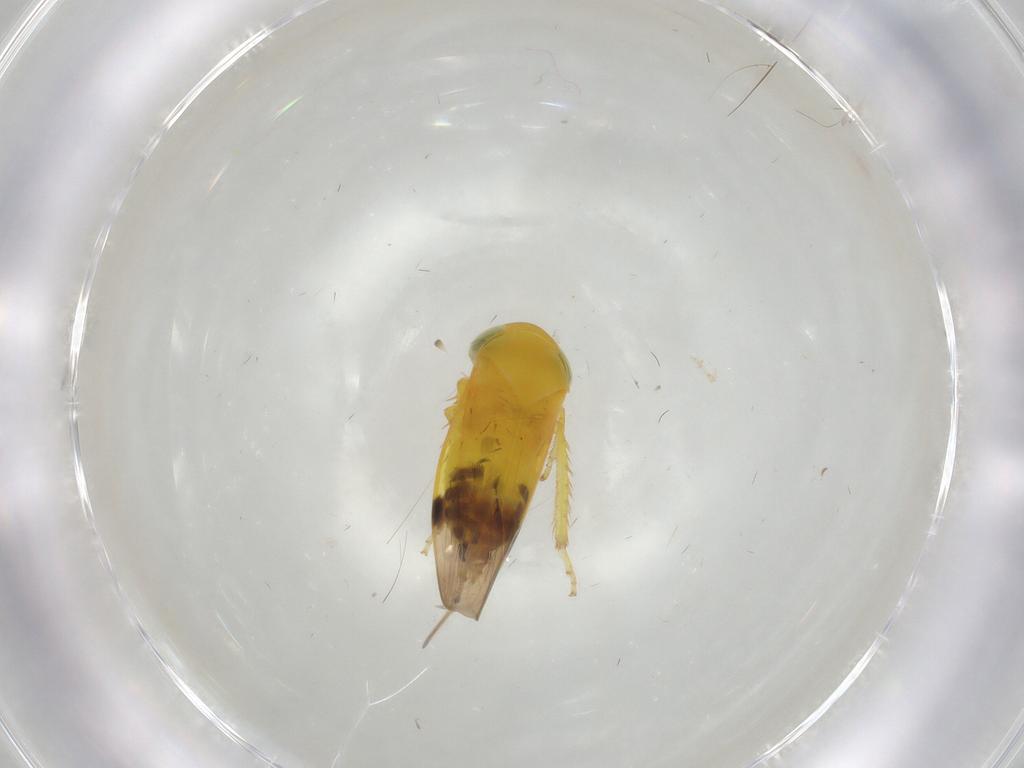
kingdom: Animalia
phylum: Arthropoda
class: Insecta
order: Hemiptera
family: Cicadellidae
